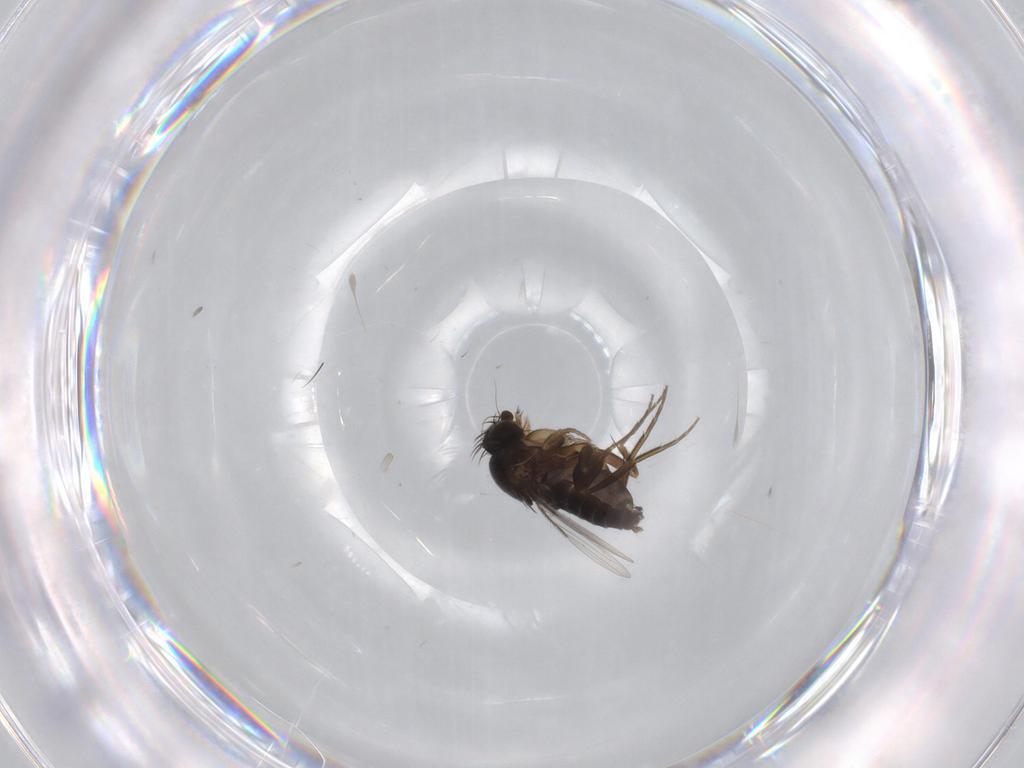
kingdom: Animalia
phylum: Arthropoda
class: Insecta
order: Diptera
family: Phoridae
